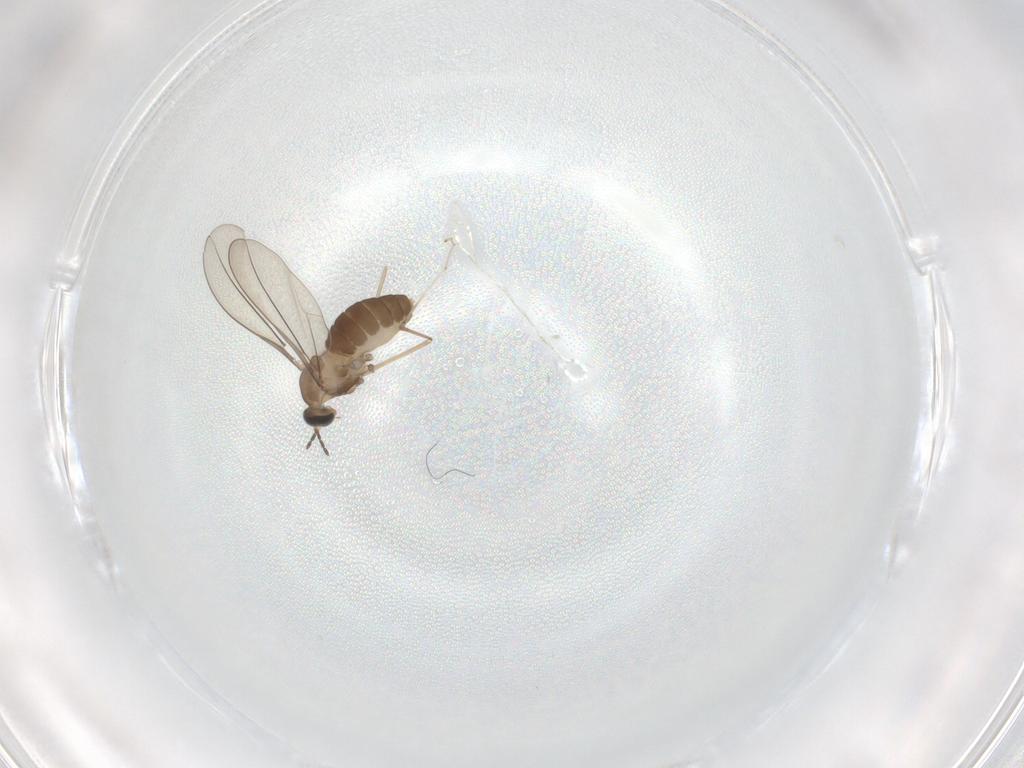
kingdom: Animalia
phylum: Arthropoda
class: Insecta
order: Diptera
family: Cecidomyiidae
